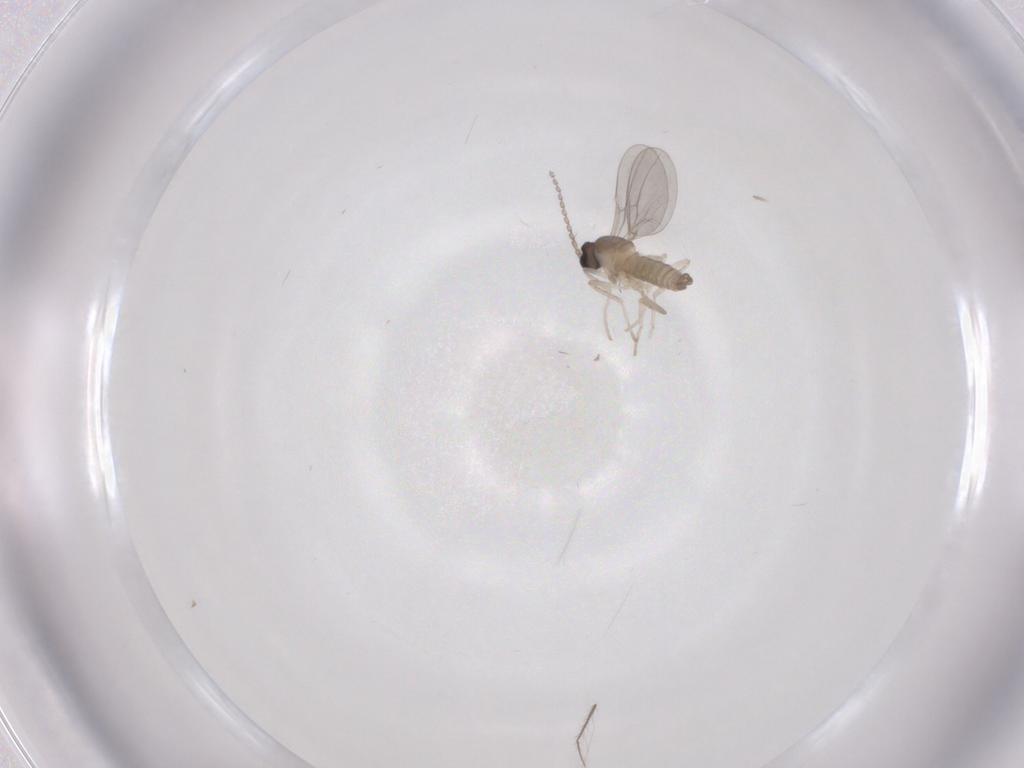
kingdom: Animalia
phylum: Arthropoda
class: Insecta
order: Diptera
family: Cecidomyiidae
